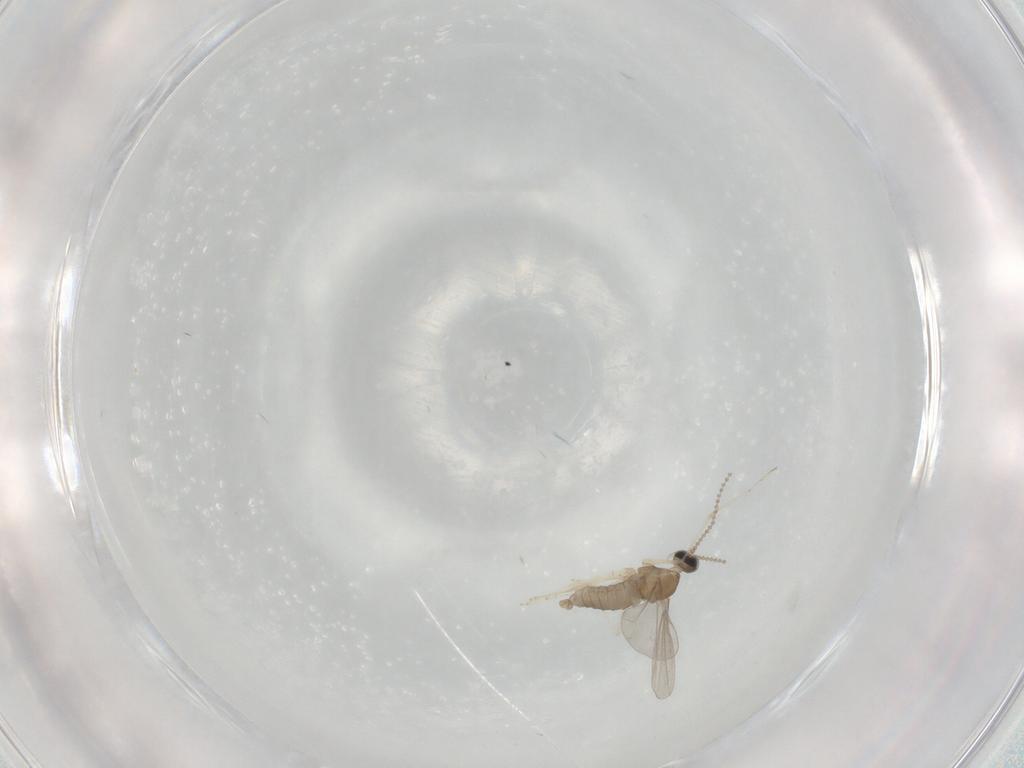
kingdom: Animalia
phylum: Arthropoda
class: Insecta
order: Diptera
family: Cecidomyiidae
